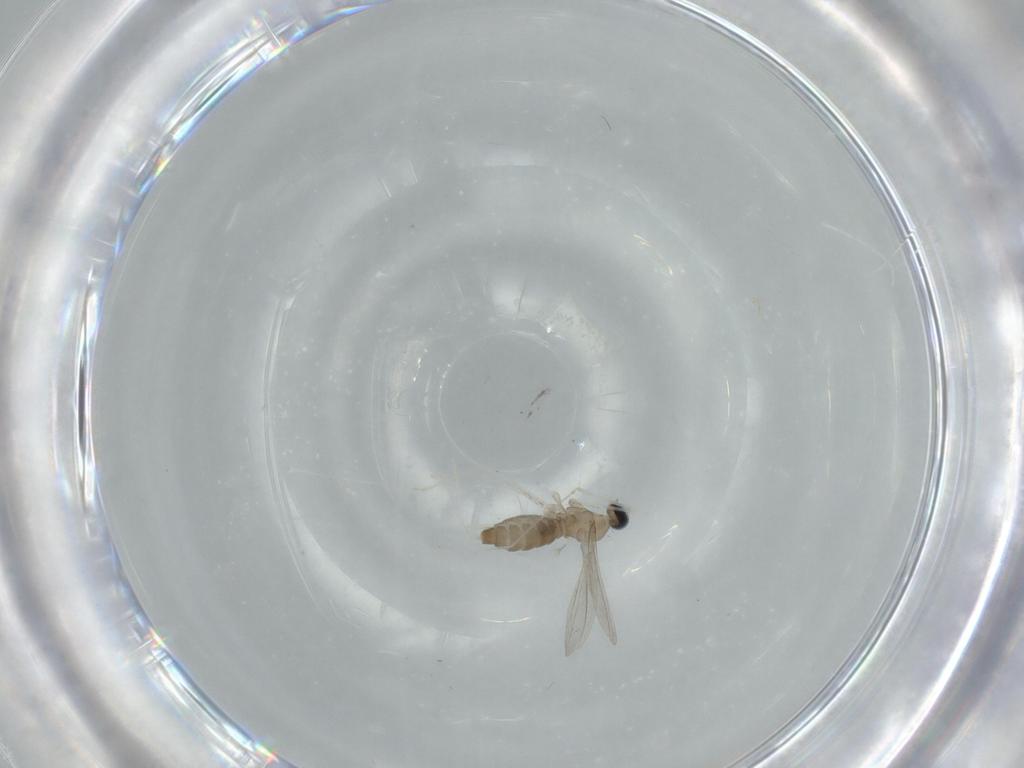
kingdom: Animalia
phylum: Arthropoda
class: Insecta
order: Diptera
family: Cecidomyiidae
